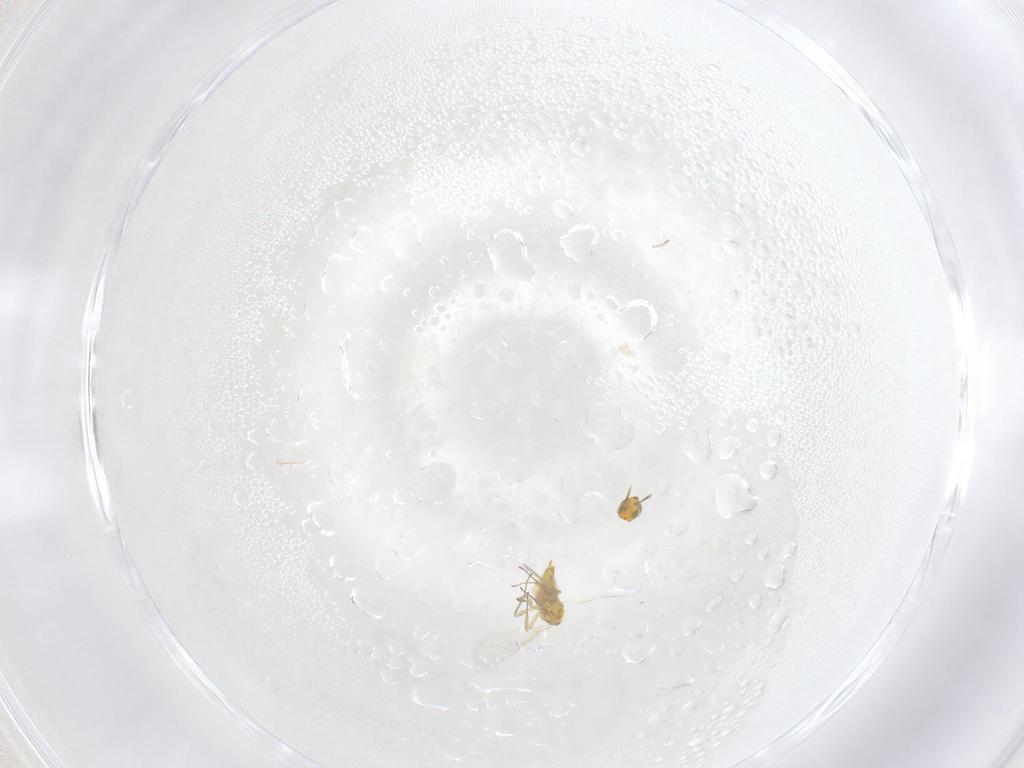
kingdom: Animalia
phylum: Arthropoda
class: Insecta
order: Hymenoptera
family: Aphelinidae
